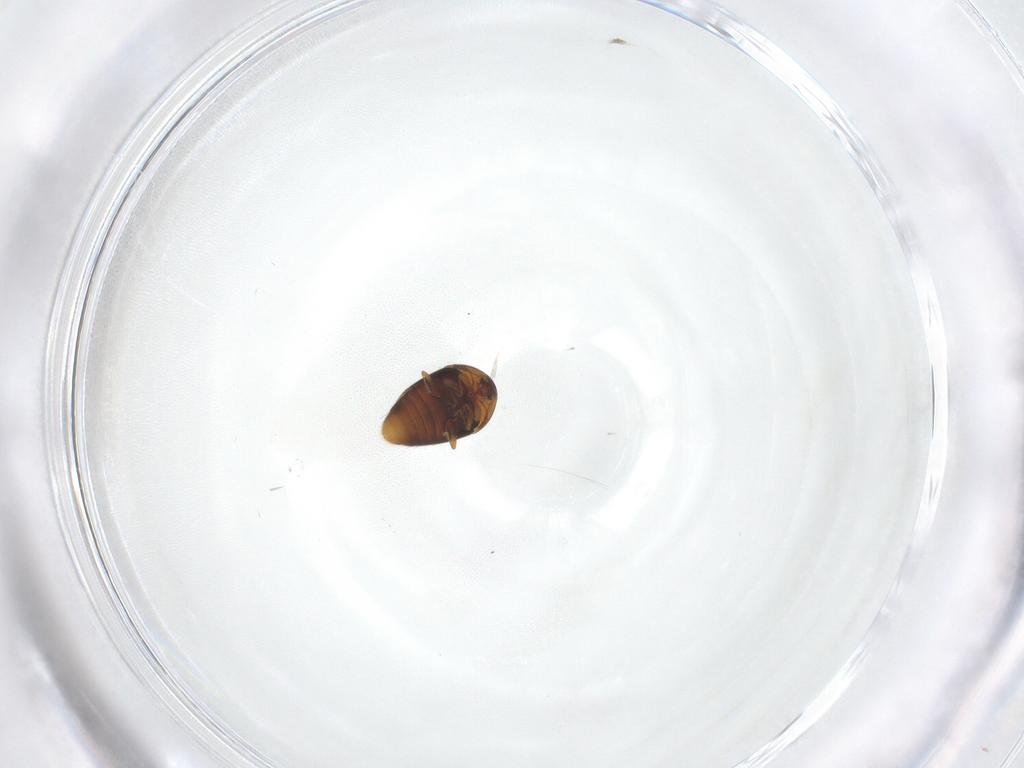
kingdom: Animalia
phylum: Arthropoda
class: Insecta
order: Coleoptera
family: Corylophidae
